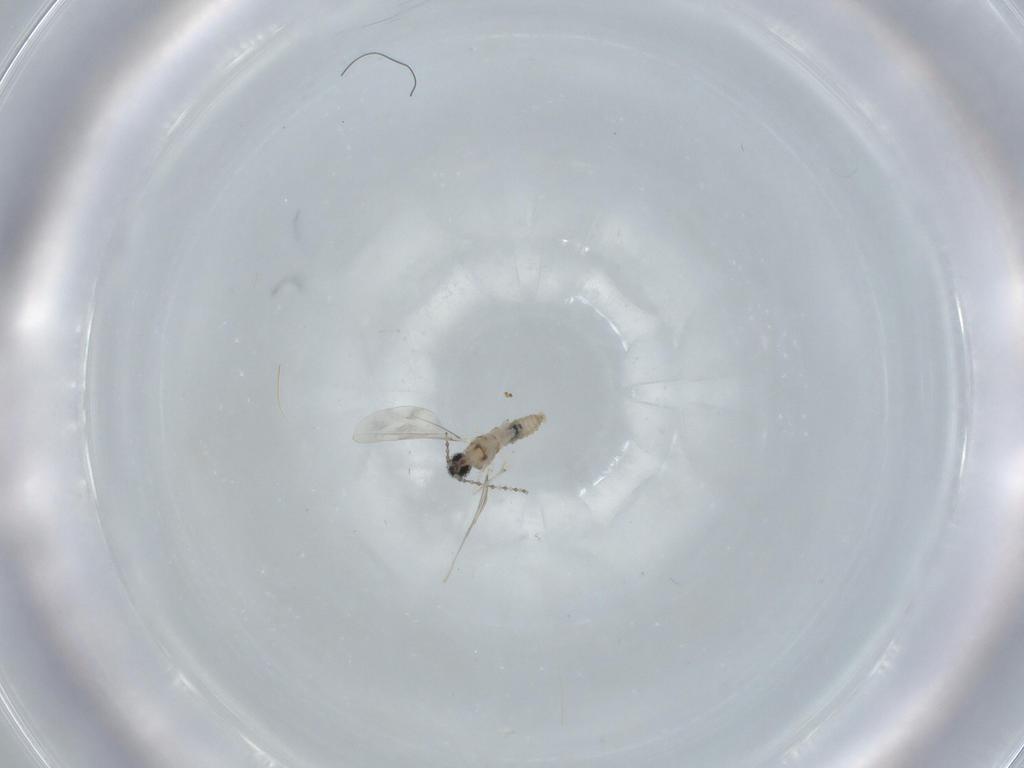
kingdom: Animalia
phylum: Arthropoda
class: Insecta
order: Diptera
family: Cecidomyiidae
